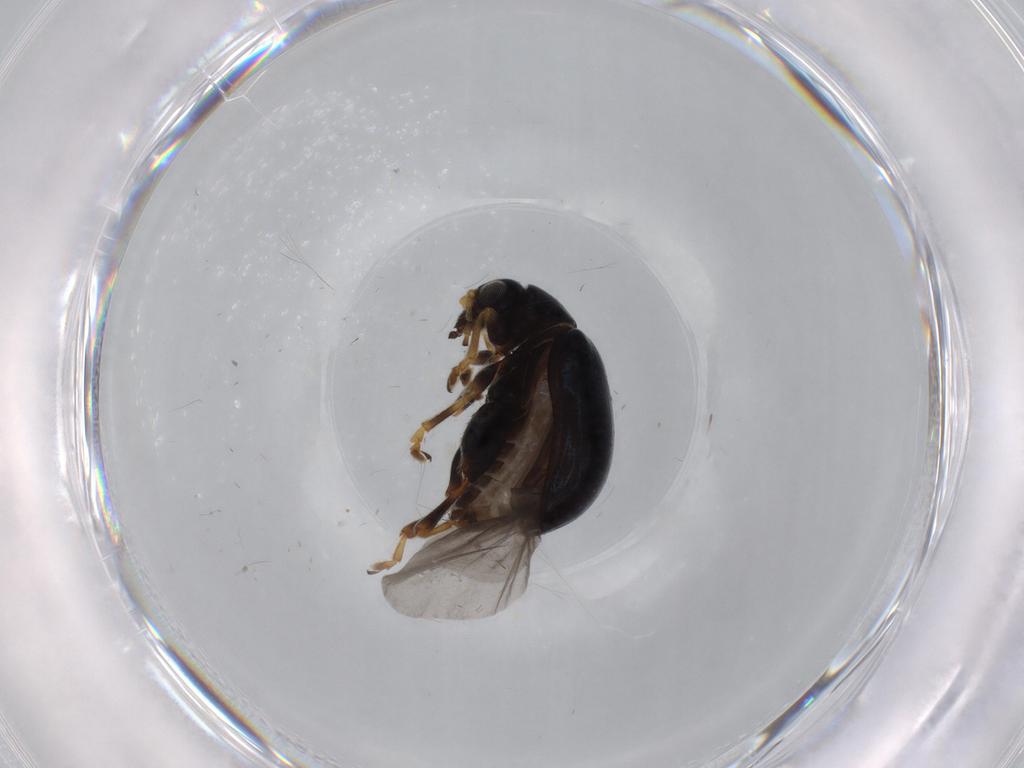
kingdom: Animalia
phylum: Arthropoda
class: Insecta
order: Coleoptera
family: Chrysomelidae
